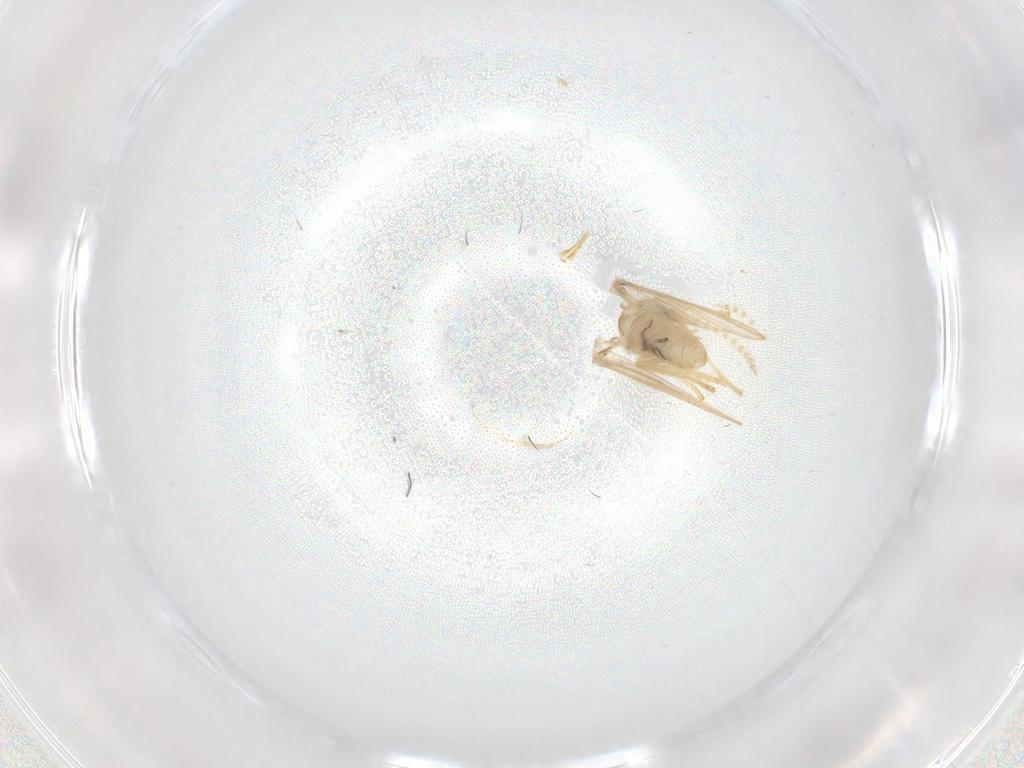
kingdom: Animalia
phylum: Arthropoda
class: Insecta
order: Diptera
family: Psychodidae
